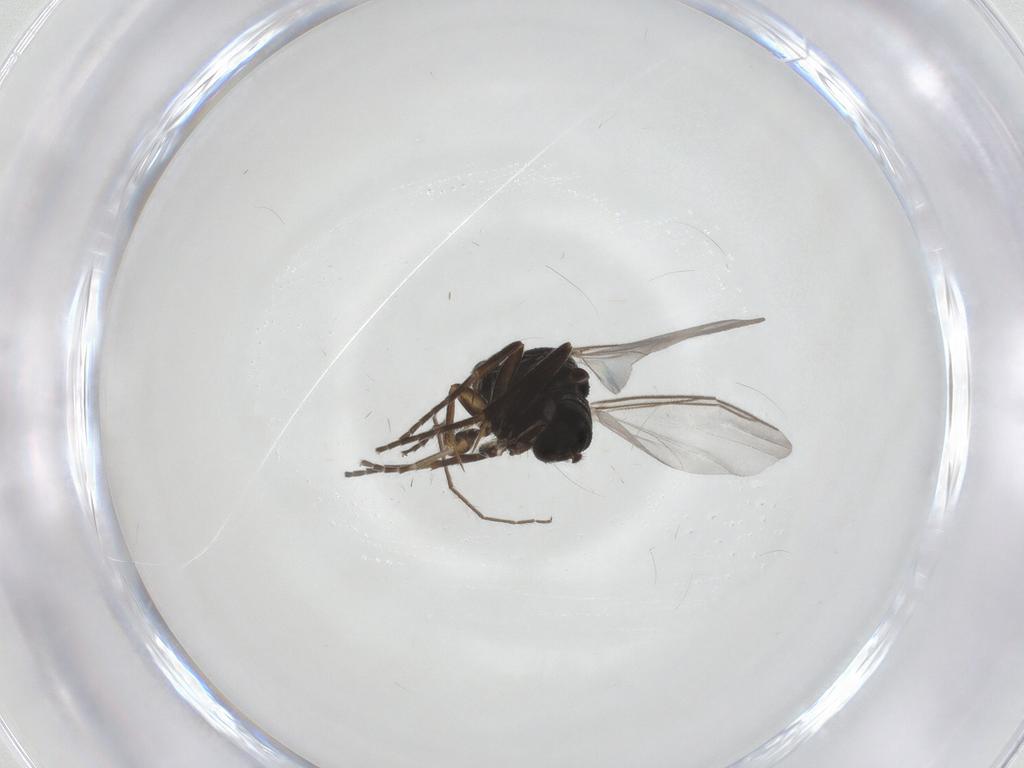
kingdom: Animalia
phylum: Arthropoda
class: Insecta
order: Diptera
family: Mycetophilidae
